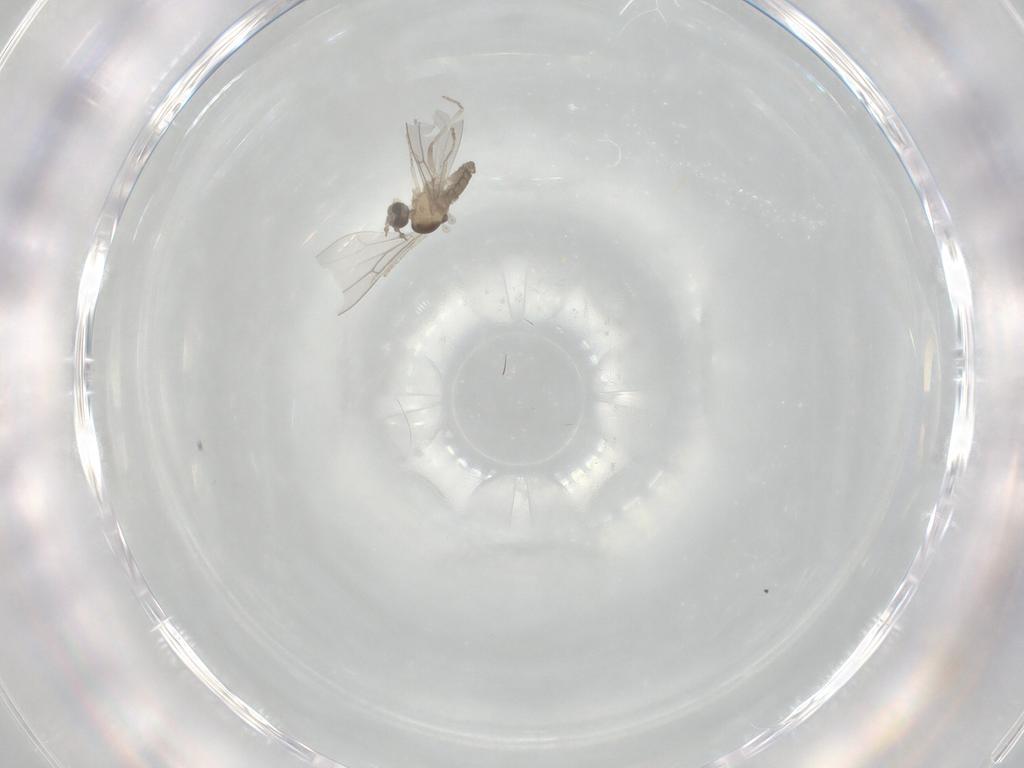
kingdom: Animalia
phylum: Arthropoda
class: Insecta
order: Diptera
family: Cecidomyiidae
